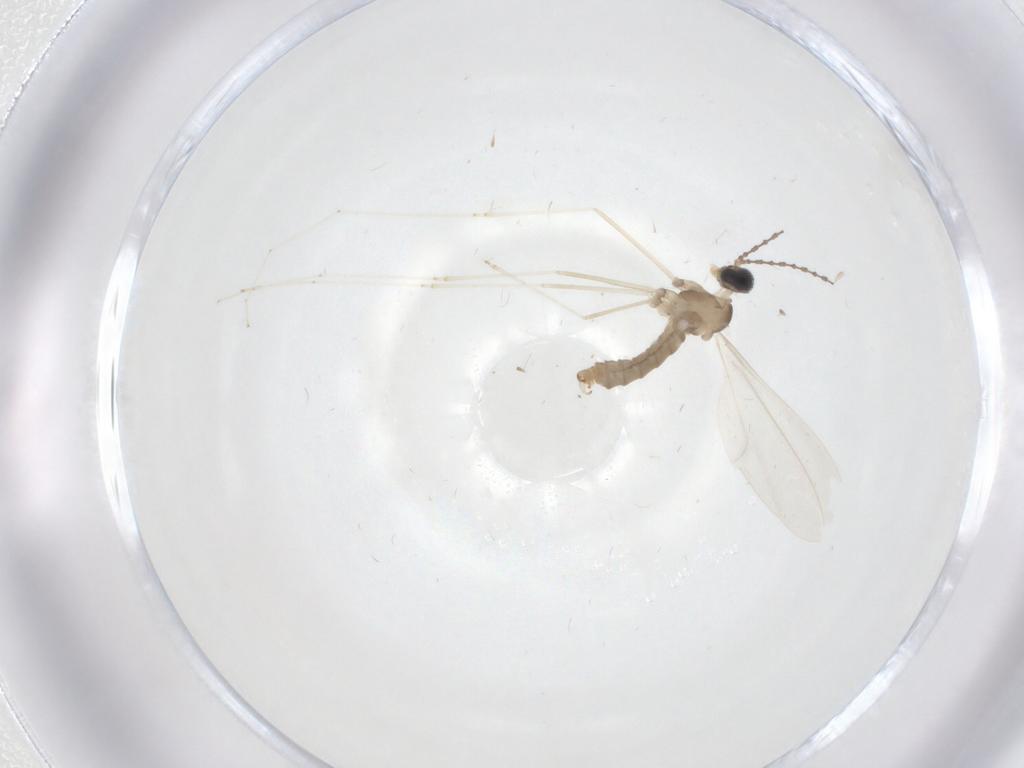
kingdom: Animalia
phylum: Arthropoda
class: Insecta
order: Diptera
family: Cecidomyiidae
